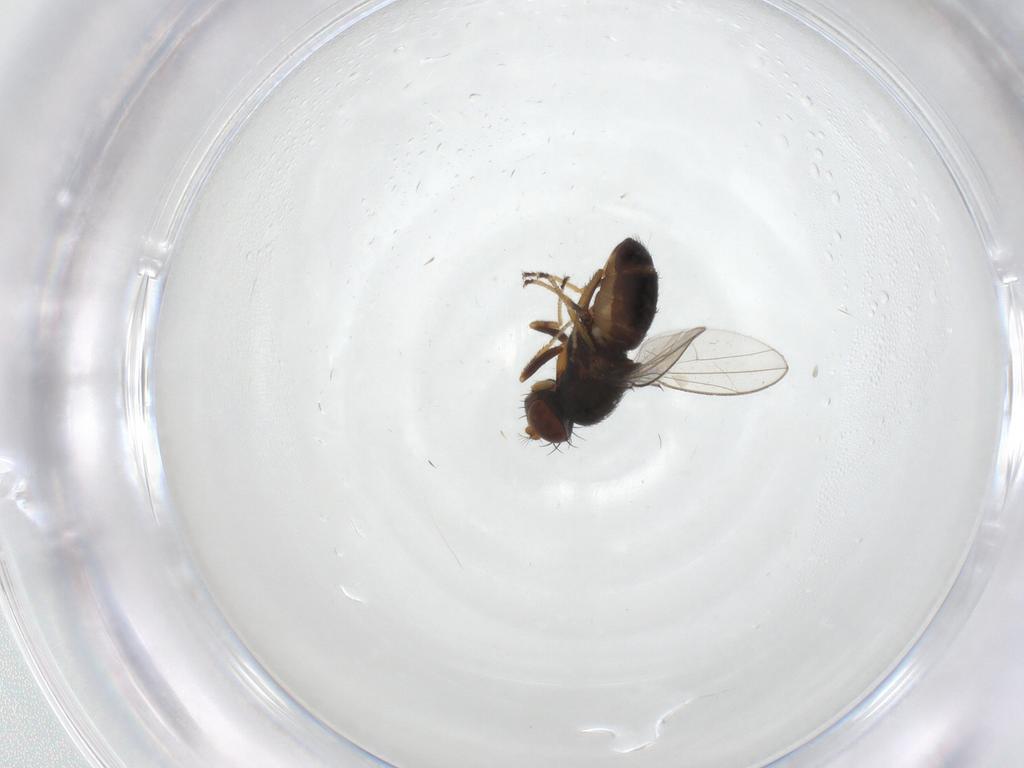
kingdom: Animalia
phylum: Arthropoda
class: Insecta
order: Diptera
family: Ephydridae
